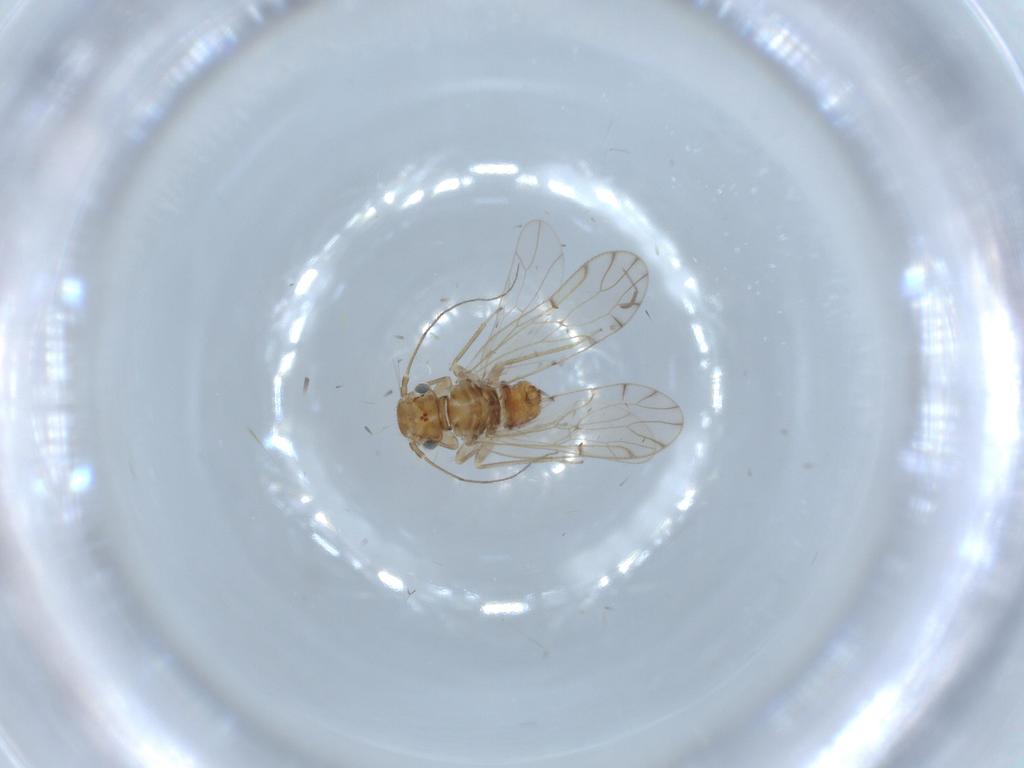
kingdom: Animalia
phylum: Arthropoda
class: Insecta
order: Psocodea
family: Ectopsocidae
